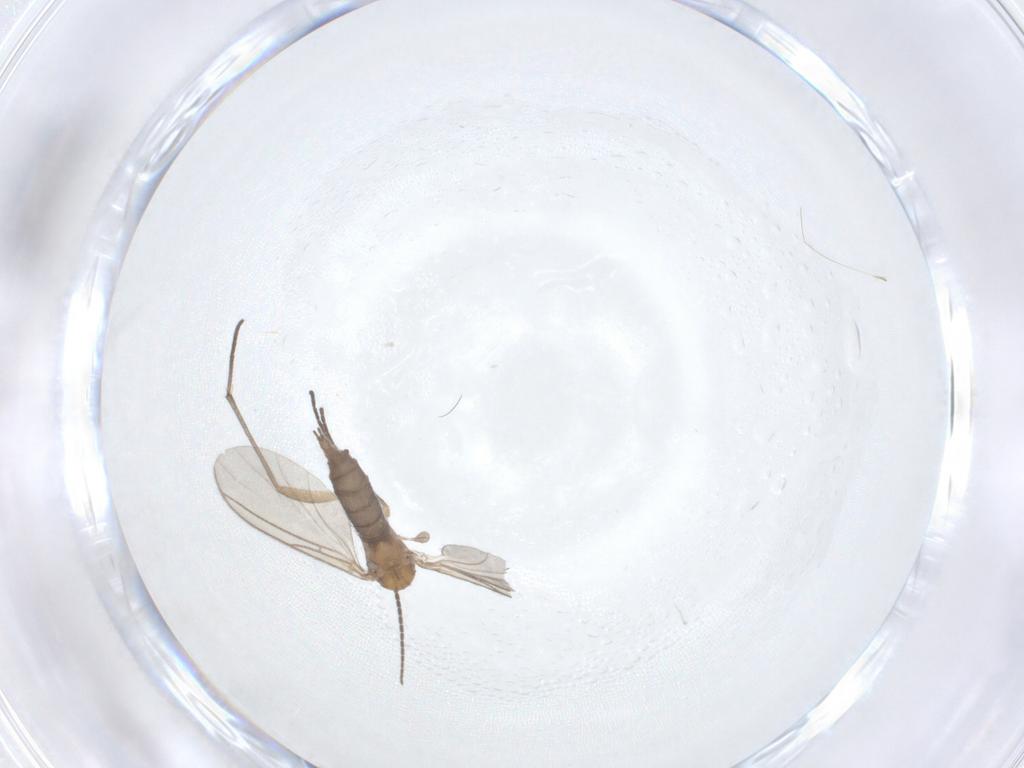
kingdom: Animalia
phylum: Arthropoda
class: Insecta
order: Diptera
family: Sciaridae
